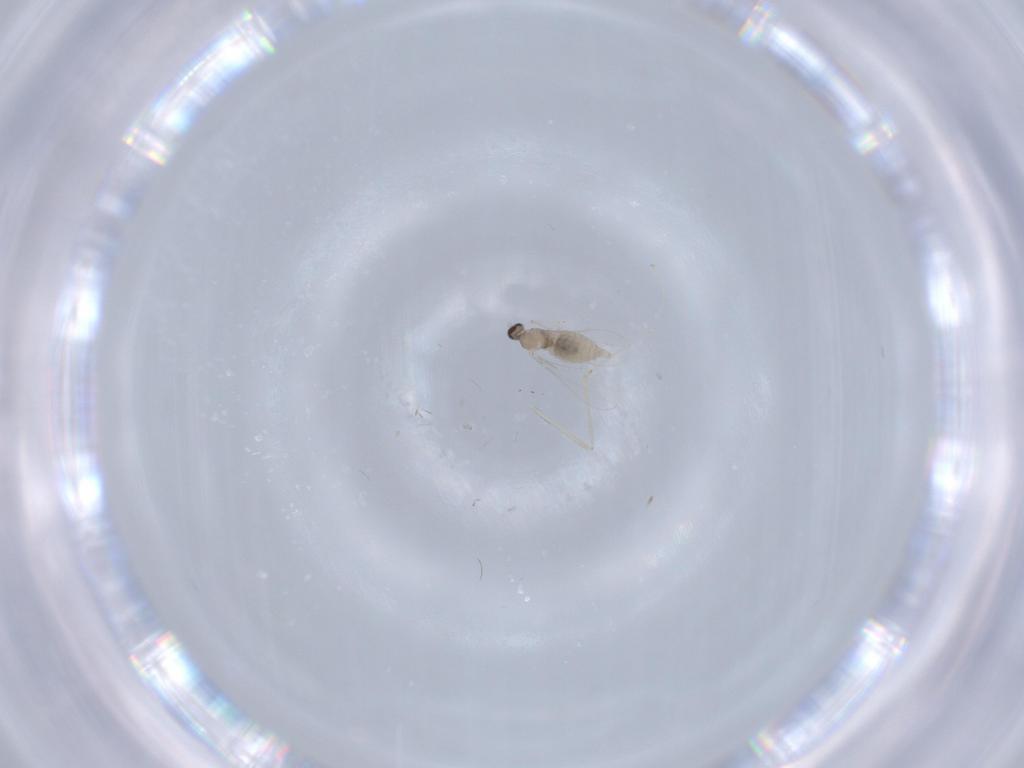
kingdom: Animalia
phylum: Arthropoda
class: Insecta
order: Diptera
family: Cecidomyiidae
